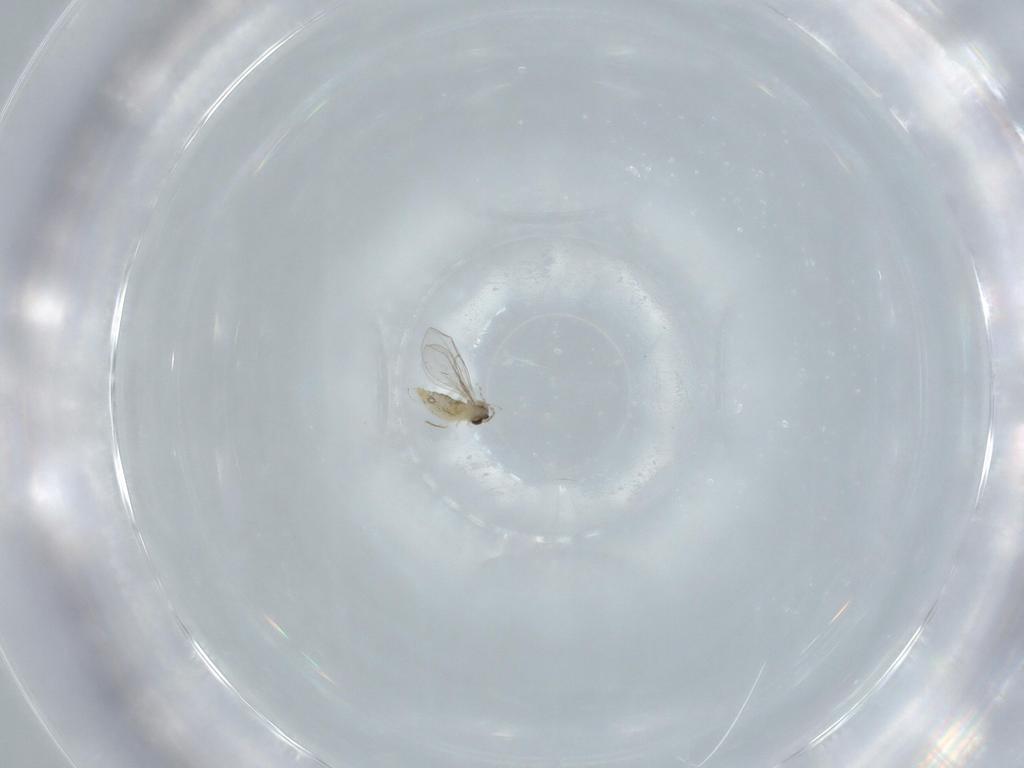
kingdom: Animalia
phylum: Arthropoda
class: Insecta
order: Diptera
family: Cecidomyiidae
